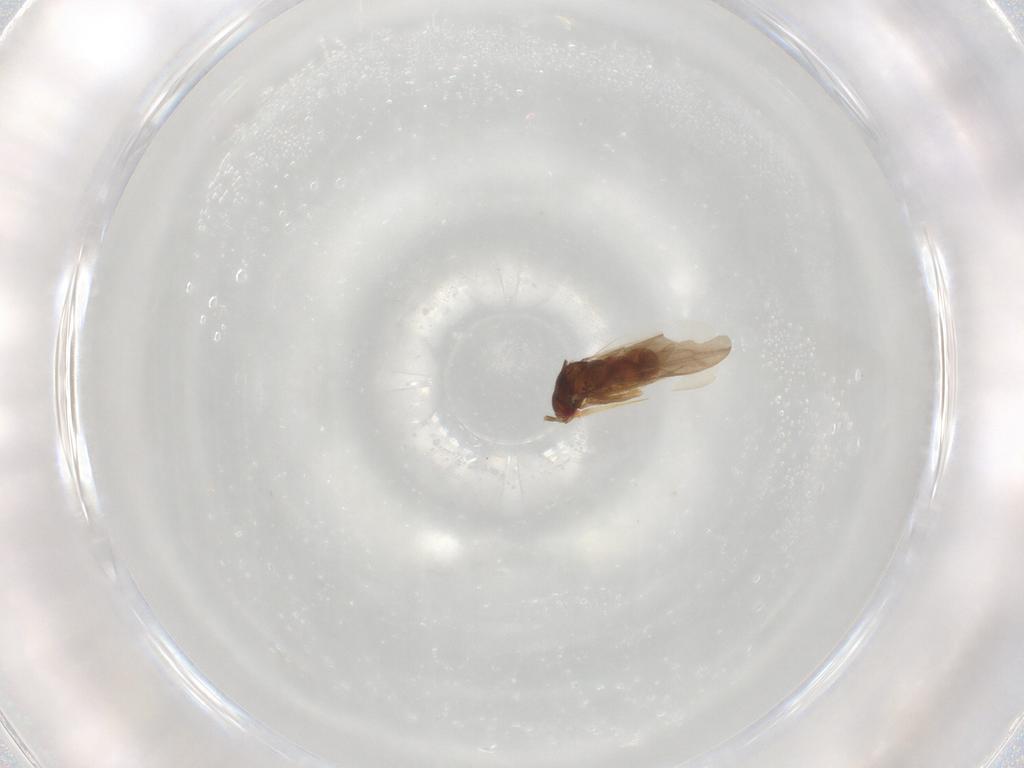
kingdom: Animalia
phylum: Arthropoda
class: Insecta
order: Hemiptera
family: Ceratocombidae
